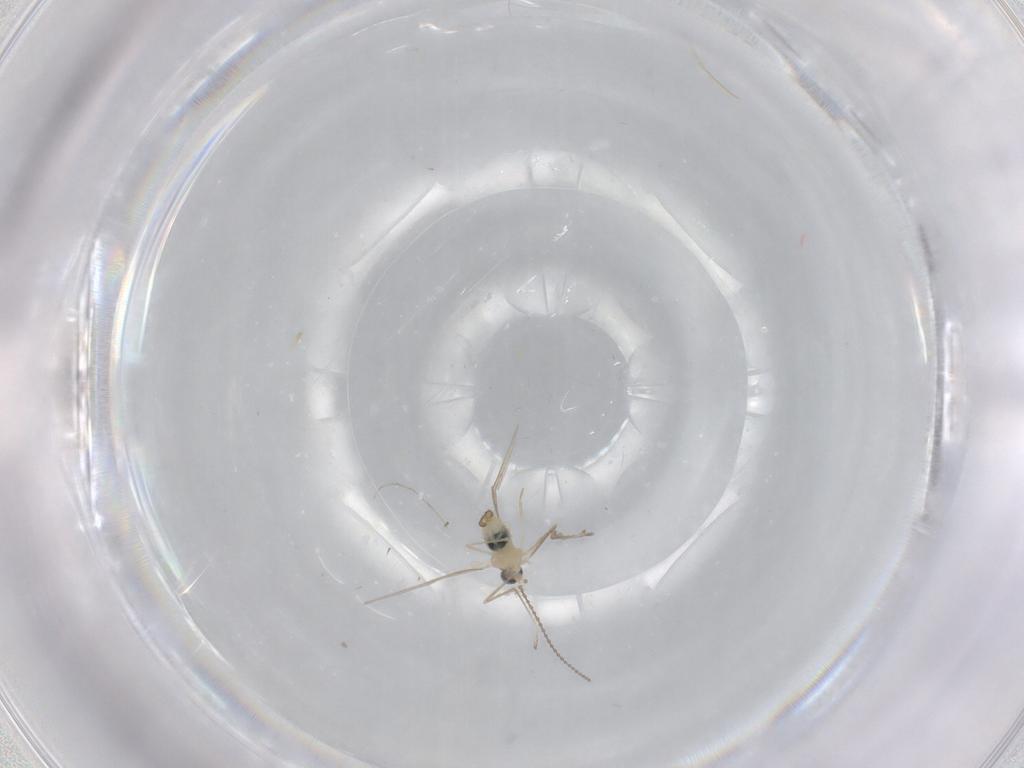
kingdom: Animalia
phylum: Arthropoda
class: Insecta
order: Diptera
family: Cecidomyiidae
